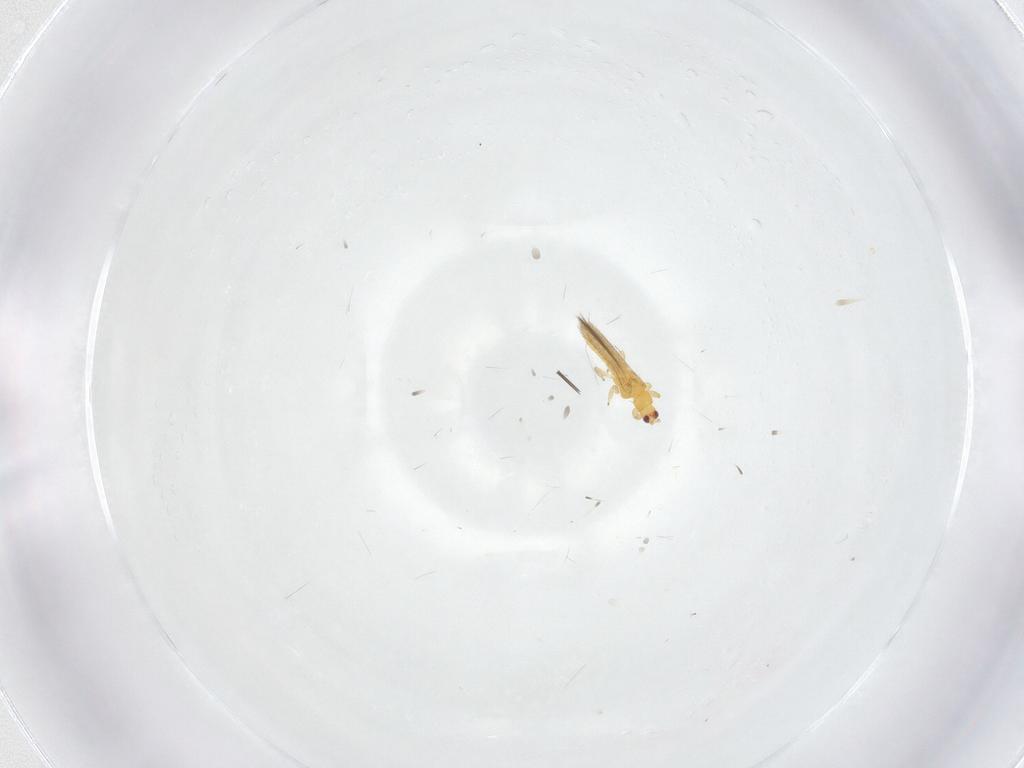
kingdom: Animalia
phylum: Arthropoda
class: Insecta
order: Thysanoptera
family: Thripidae
